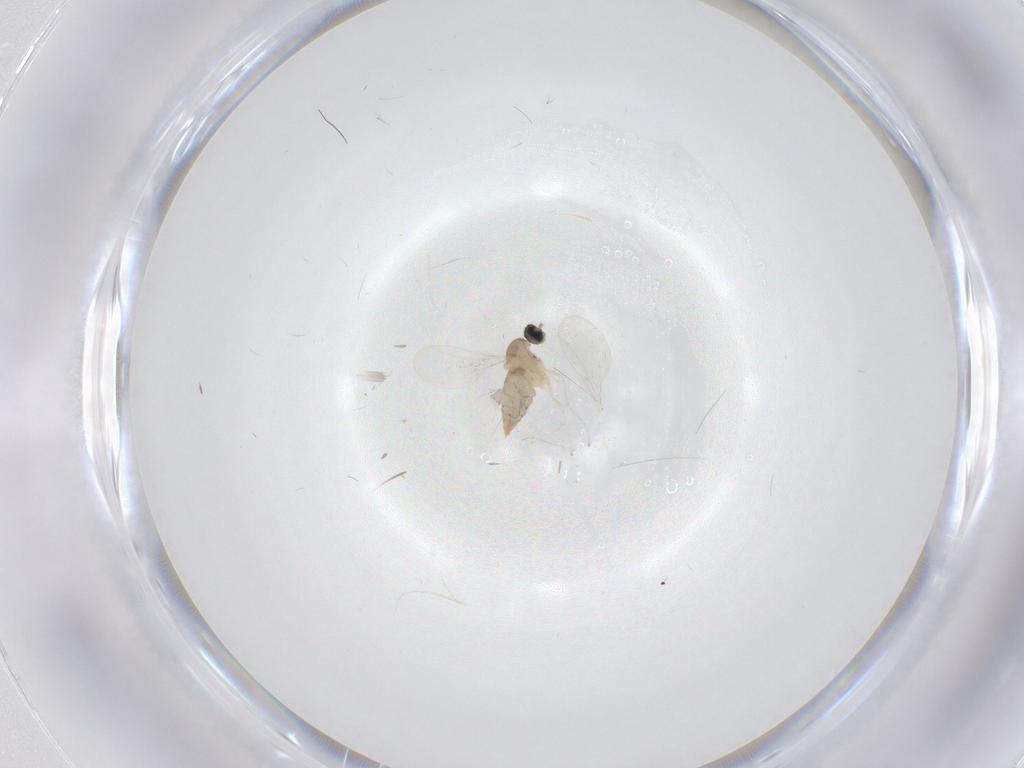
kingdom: Animalia
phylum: Arthropoda
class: Insecta
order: Diptera
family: Cecidomyiidae
